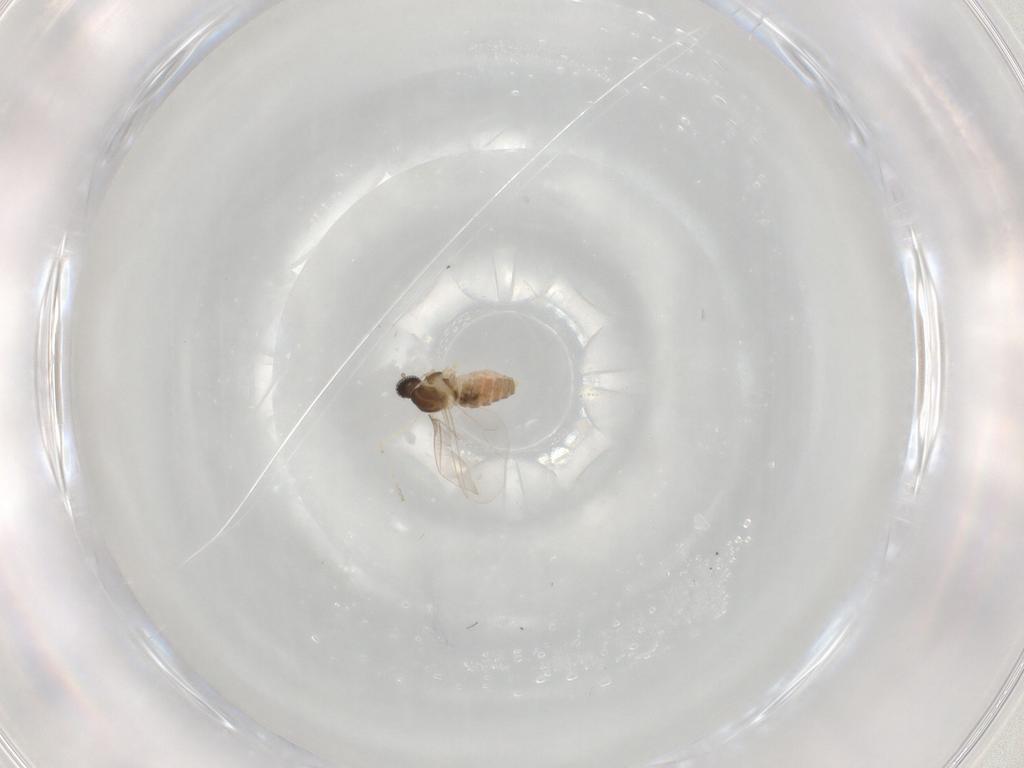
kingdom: Animalia
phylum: Arthropoda
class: Insecta
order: Diptera
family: Cecidomyiidae
